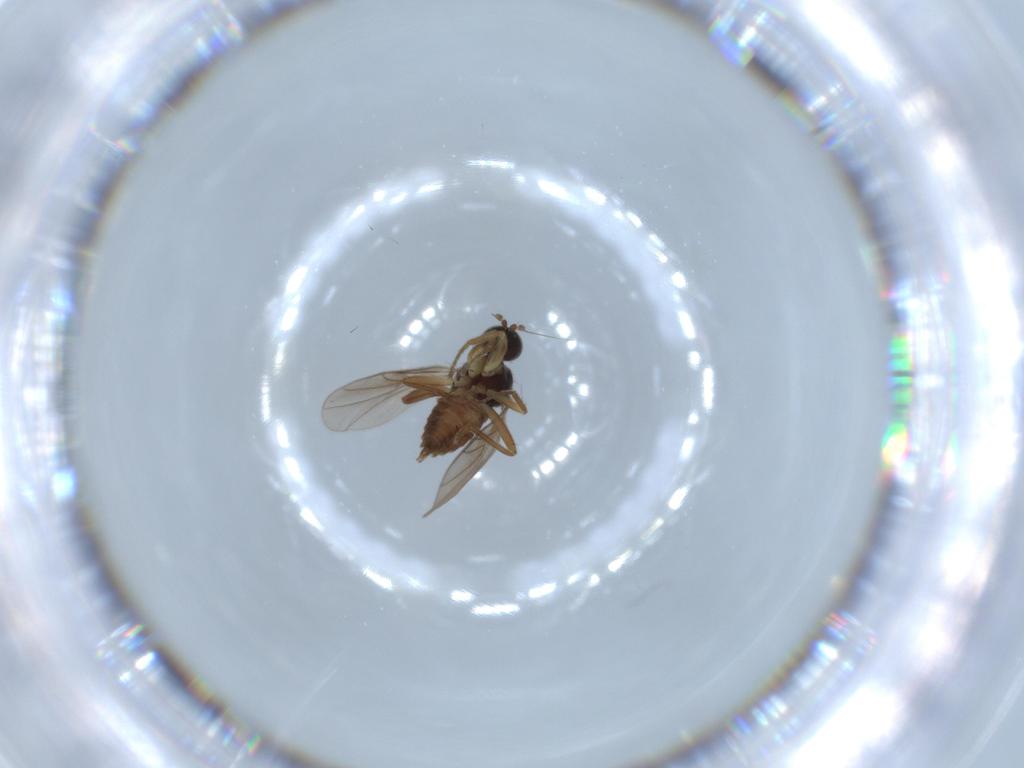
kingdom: Animalia
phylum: Arthropoda
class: Insecta
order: Diptera
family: Hybotidae
